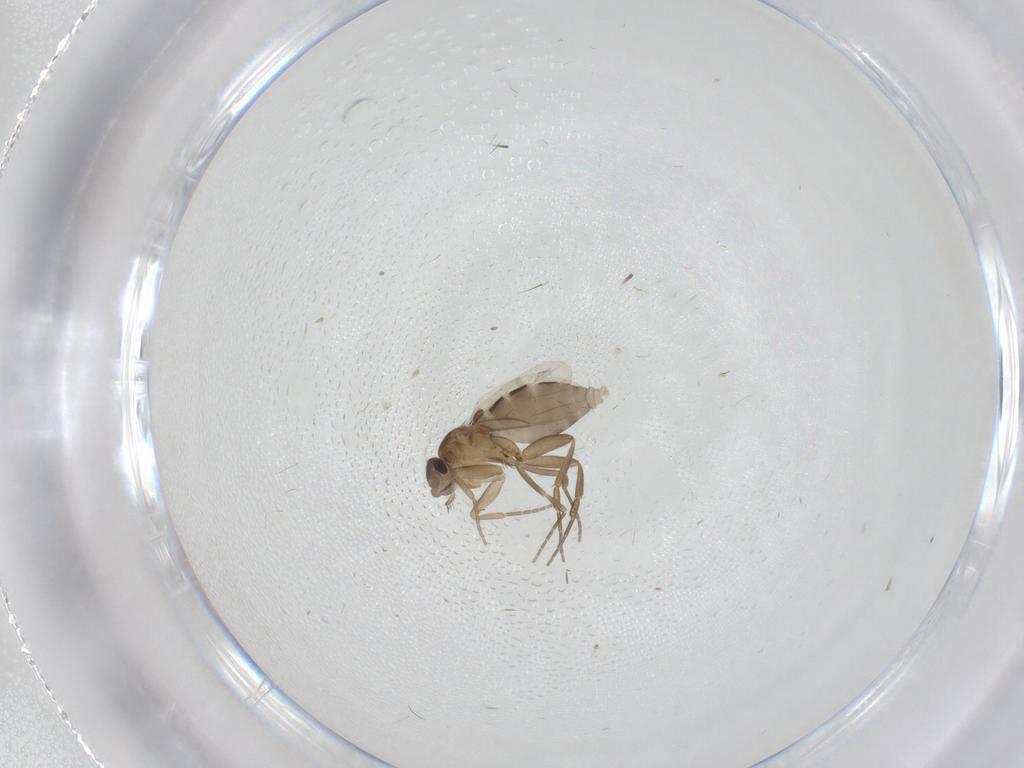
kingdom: Animalia
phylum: Arthropoda
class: Insecta
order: Diptera
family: Phoridae
